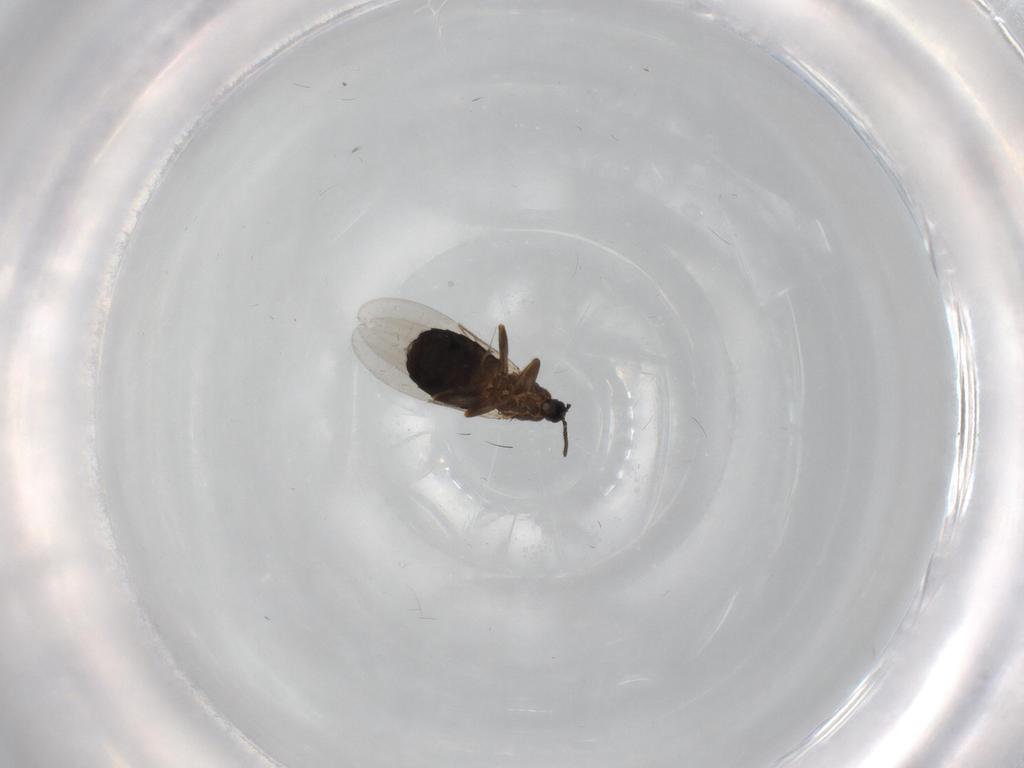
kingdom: Animalia
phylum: Arthropoda
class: Insecta
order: Diptera
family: Scatopsidae
